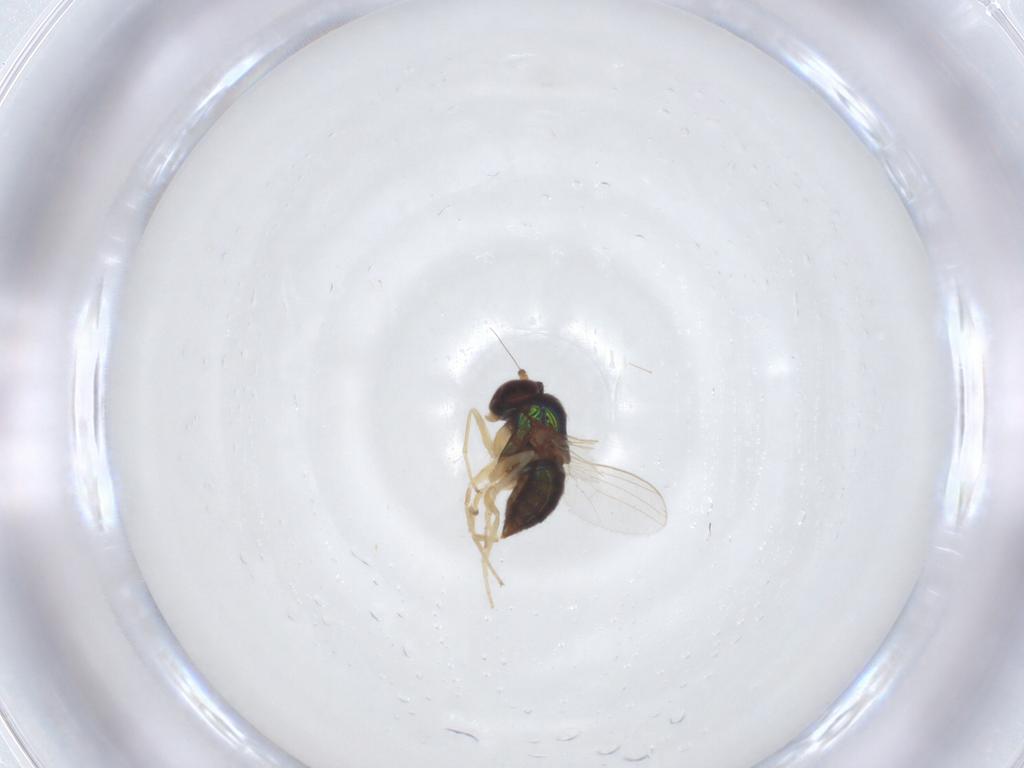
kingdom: Animalia
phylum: Arthropoda
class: Insecta
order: Diptera
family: Dolichopodidae
